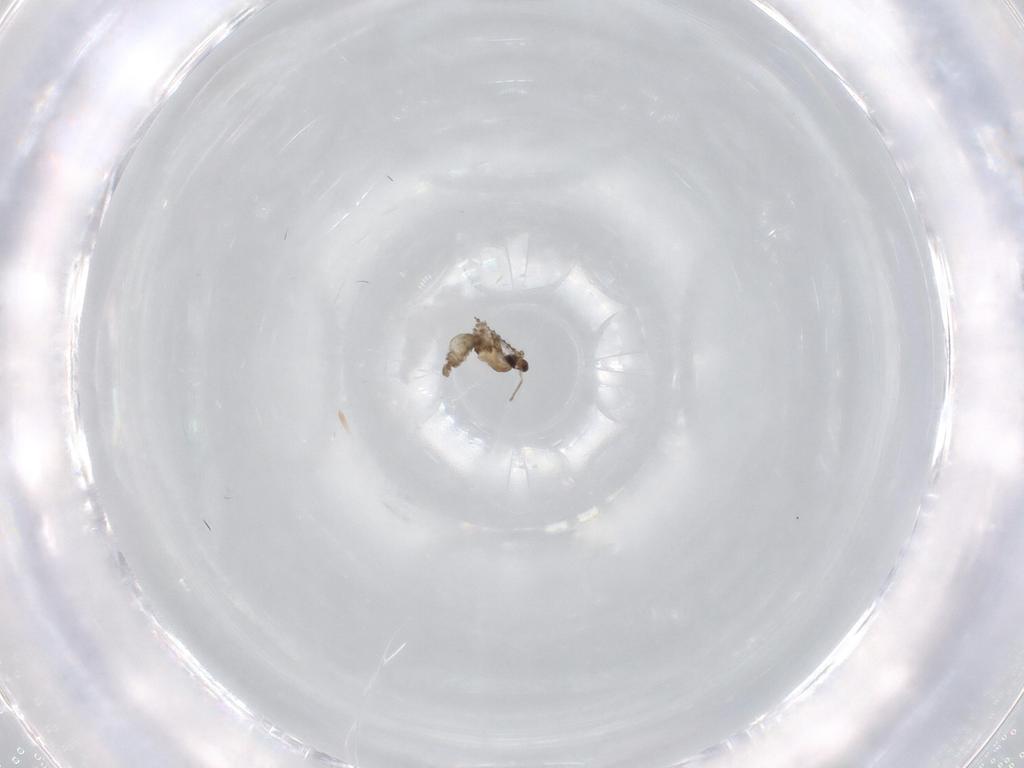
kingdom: Animalia
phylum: Arthropoda
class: Insecta
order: Diptera
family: Cecidomyiidae
